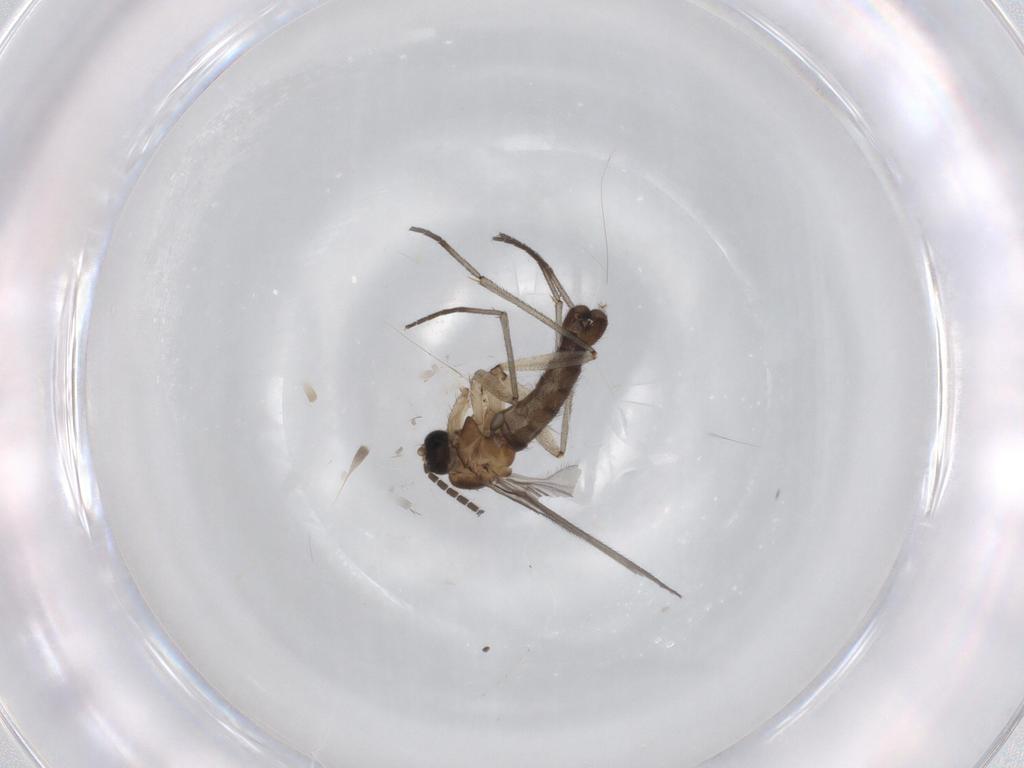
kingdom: Animalia
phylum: Arthropoda
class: Insecta
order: Diptera
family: Sciaridae
